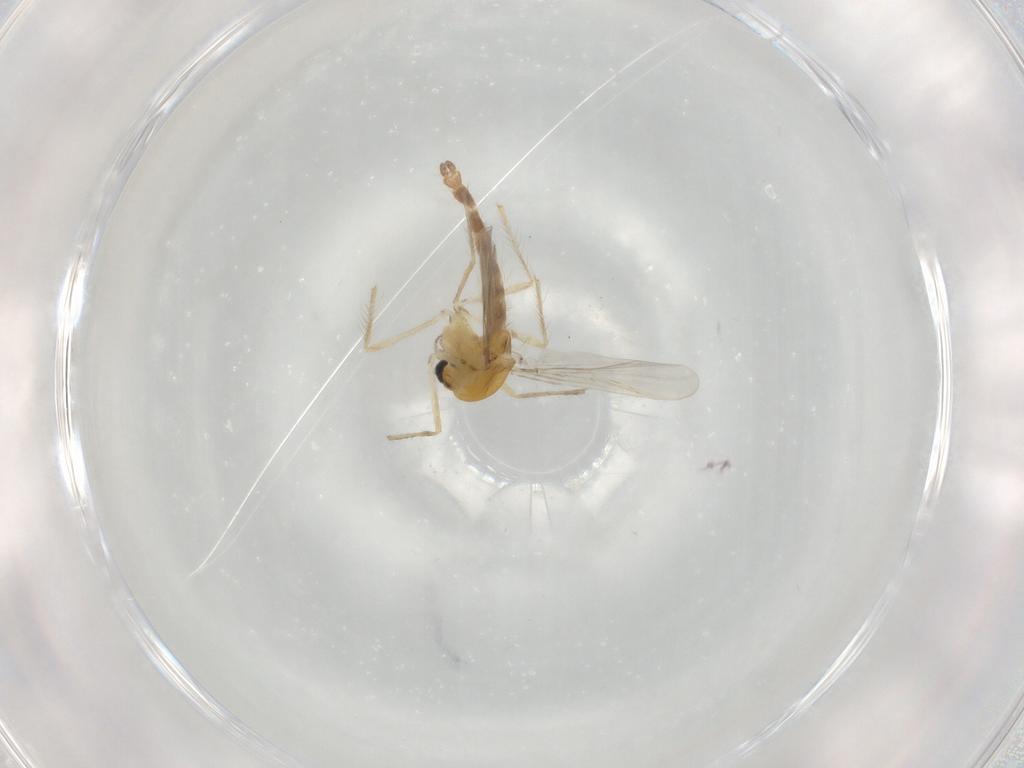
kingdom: Animalia
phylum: Arthropoda
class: Insecta
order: Diptera
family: Chironomidae
